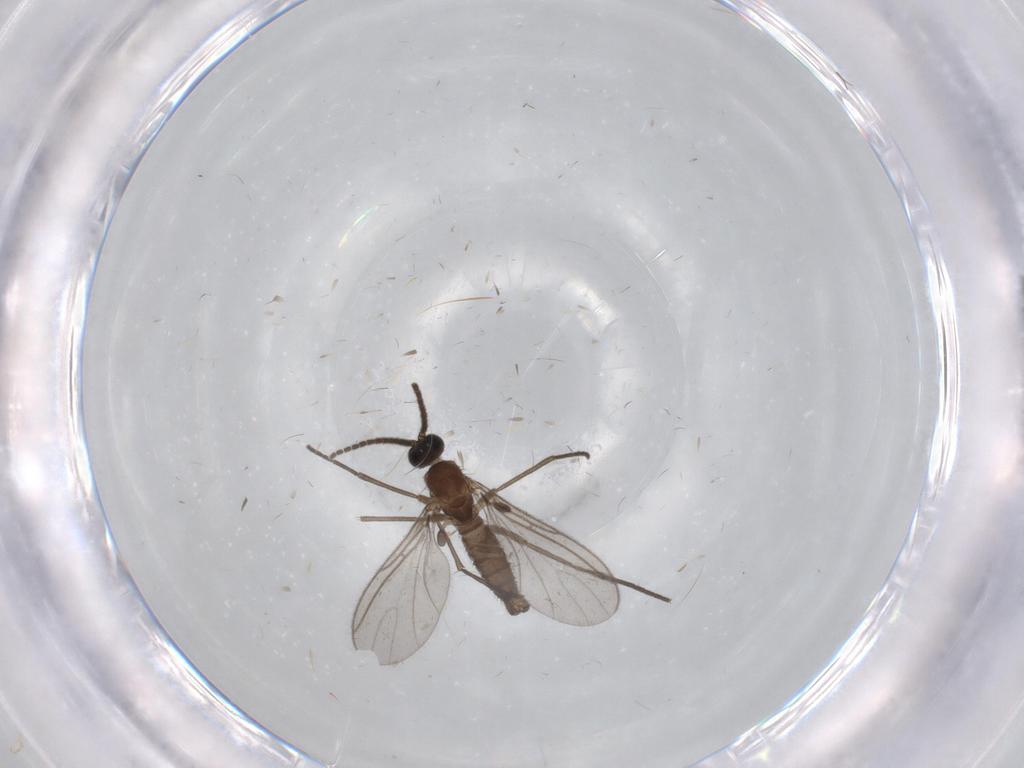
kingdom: Animalia
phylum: Arthropoda
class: Insecta
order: Diptera
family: Sciaridae
